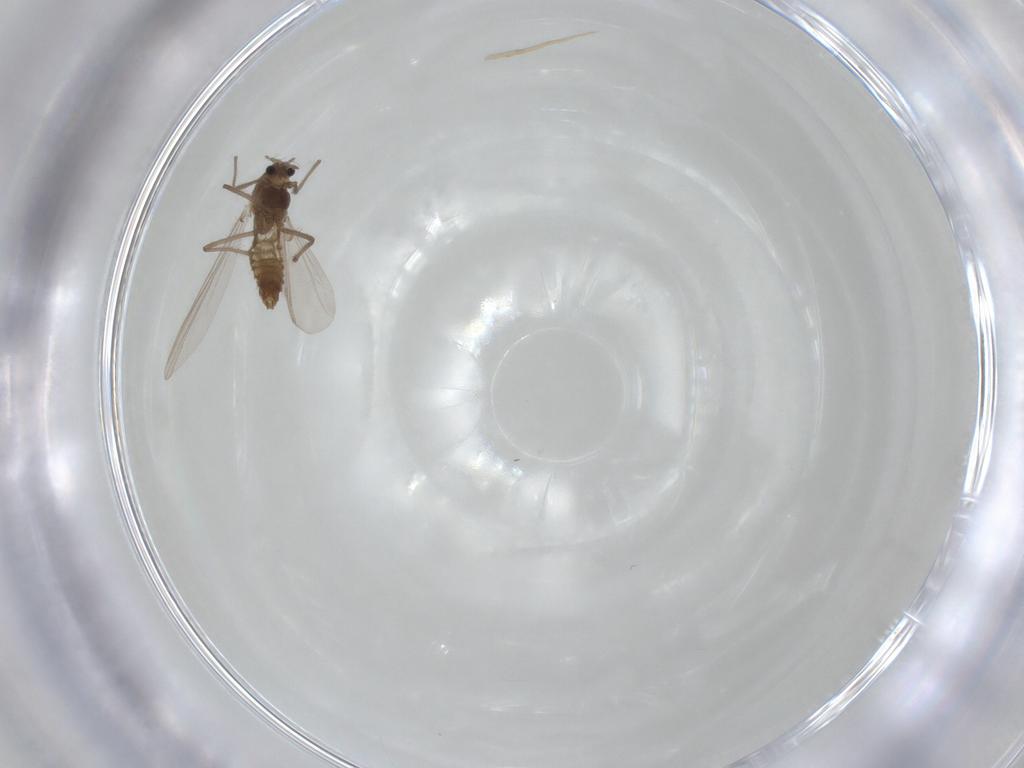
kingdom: Animalia
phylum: Arthropoda
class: Insecta
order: Diptera
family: Chironomidae
